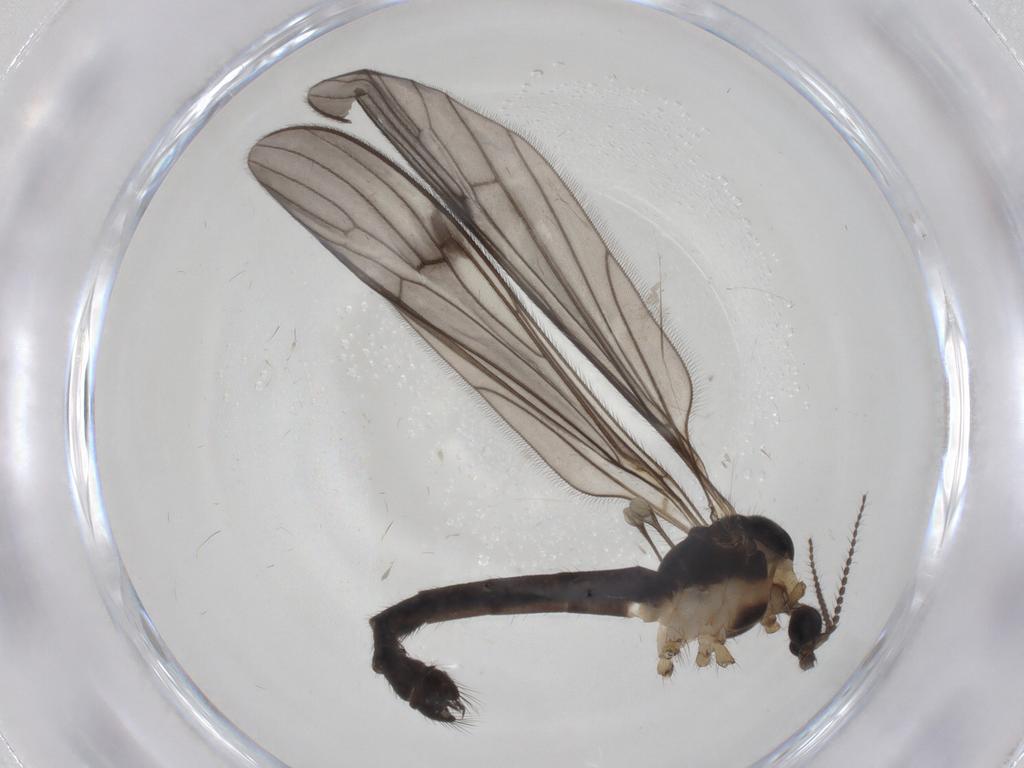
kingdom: Animalia
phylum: Arthropoda
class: Insecta
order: Diptera
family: Limoniidae
